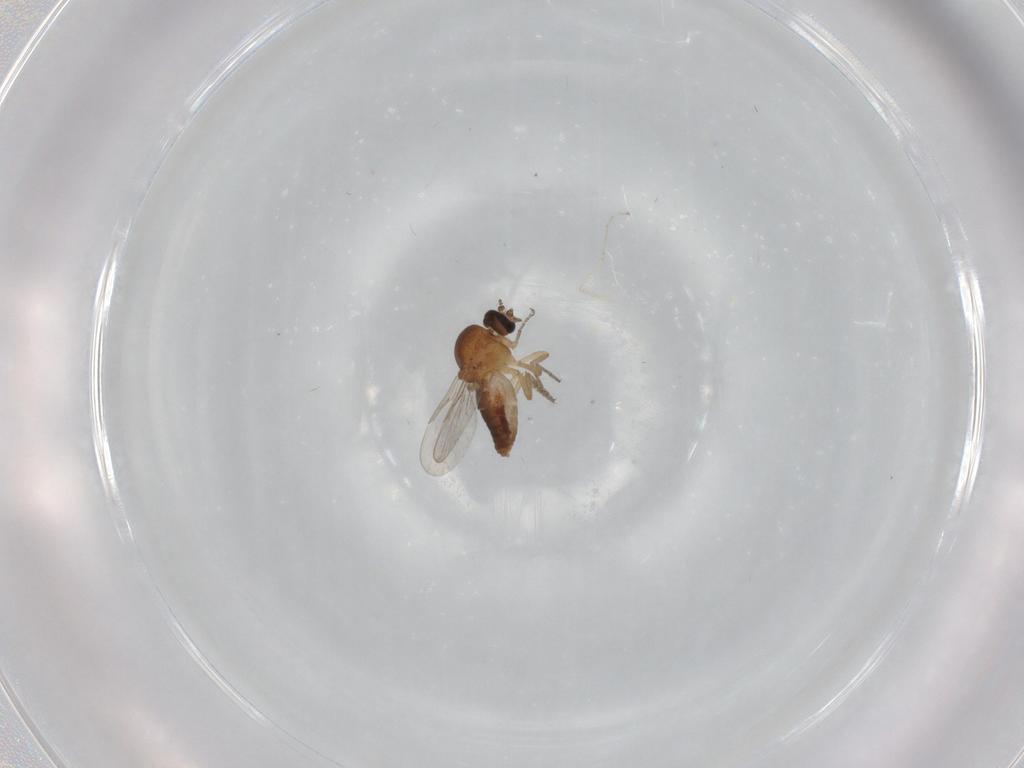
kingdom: Animalia
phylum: Arthropoda
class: Insecta
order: Diptera
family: Ceratopogonidae
